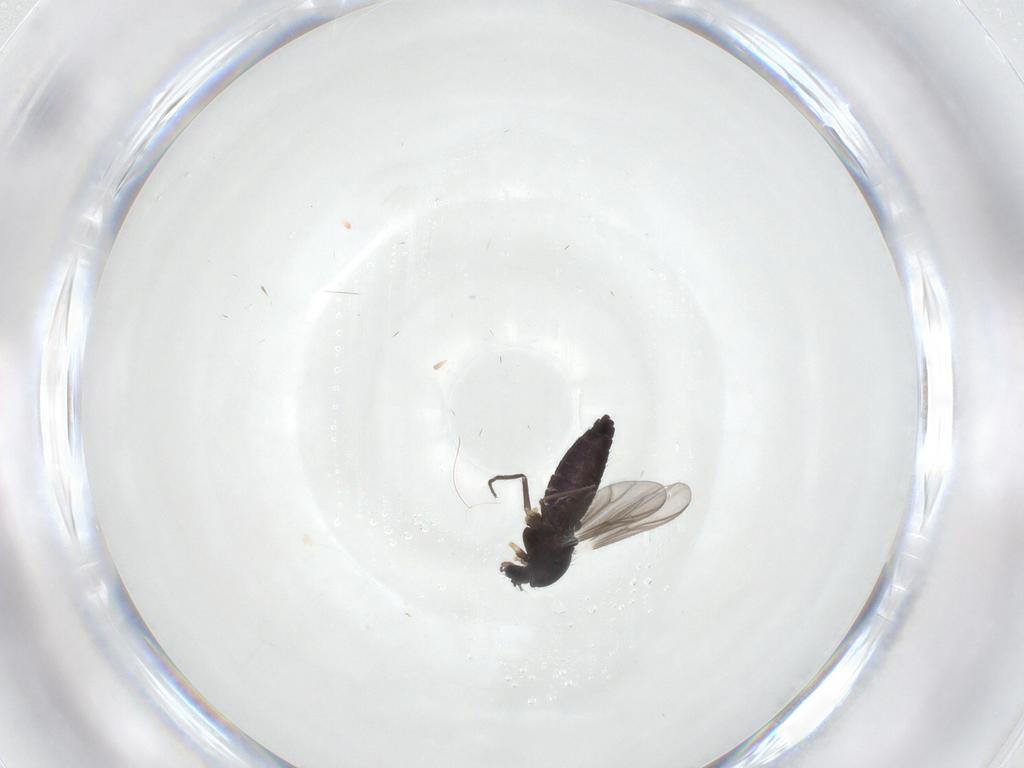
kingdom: Animalia
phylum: Arthropoda
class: Insecta
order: Diptera
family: Chironomidae
